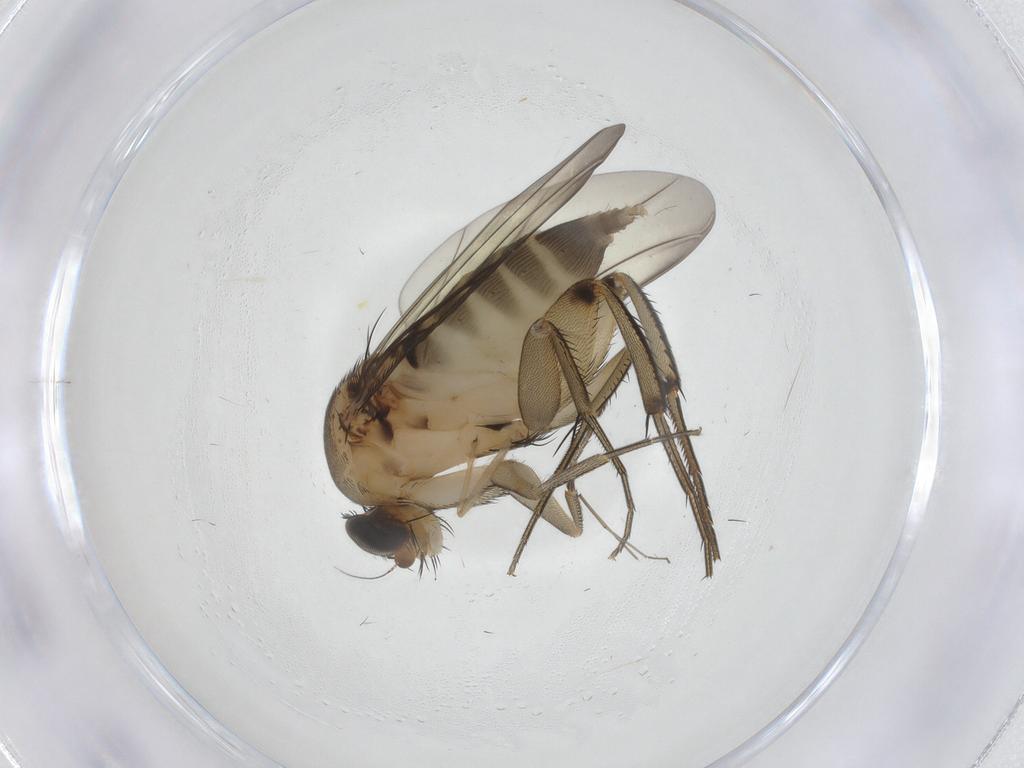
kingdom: Animalia
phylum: Arthropoda
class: Insecta
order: Diptera
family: Phoridae
